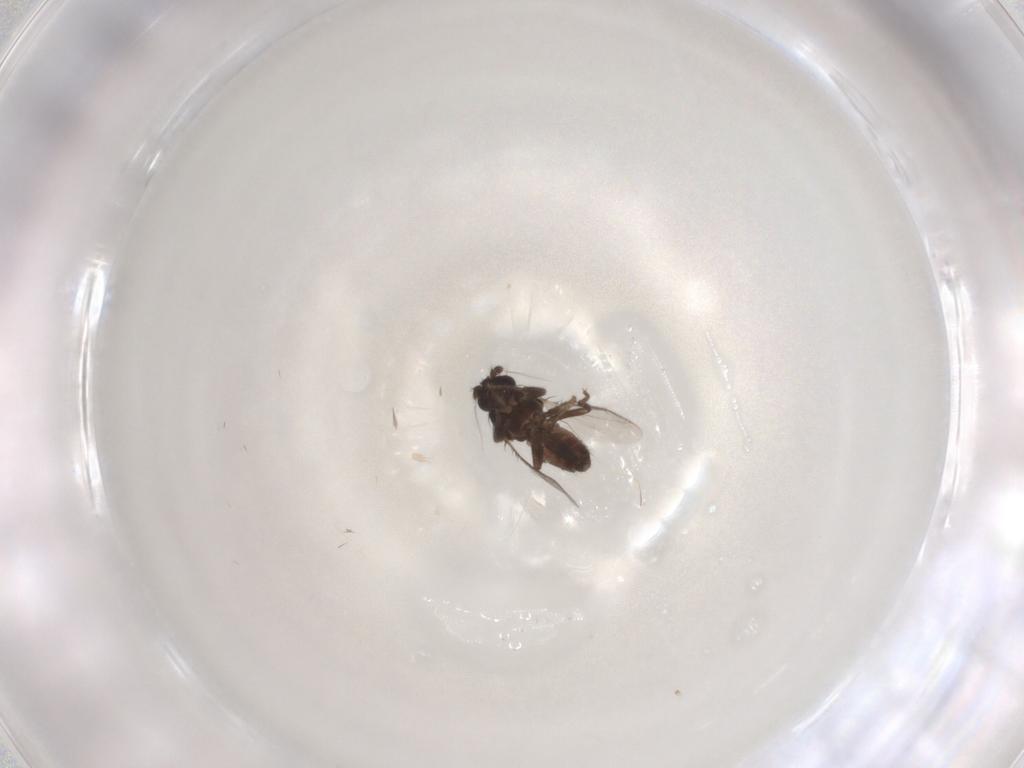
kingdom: Animalia
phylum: Arthropoda
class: Insecta
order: Diptera
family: Sphaeroceridae
